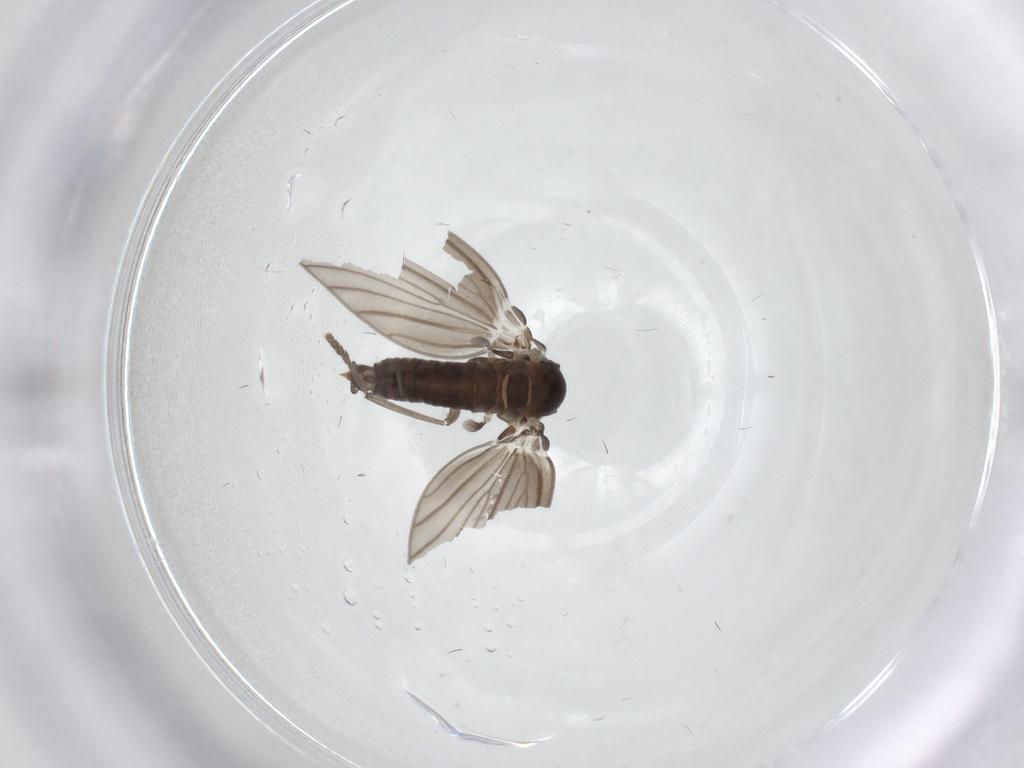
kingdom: Animalia
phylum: Arthropoda
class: Insecta
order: Diptera
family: Psychodidae
